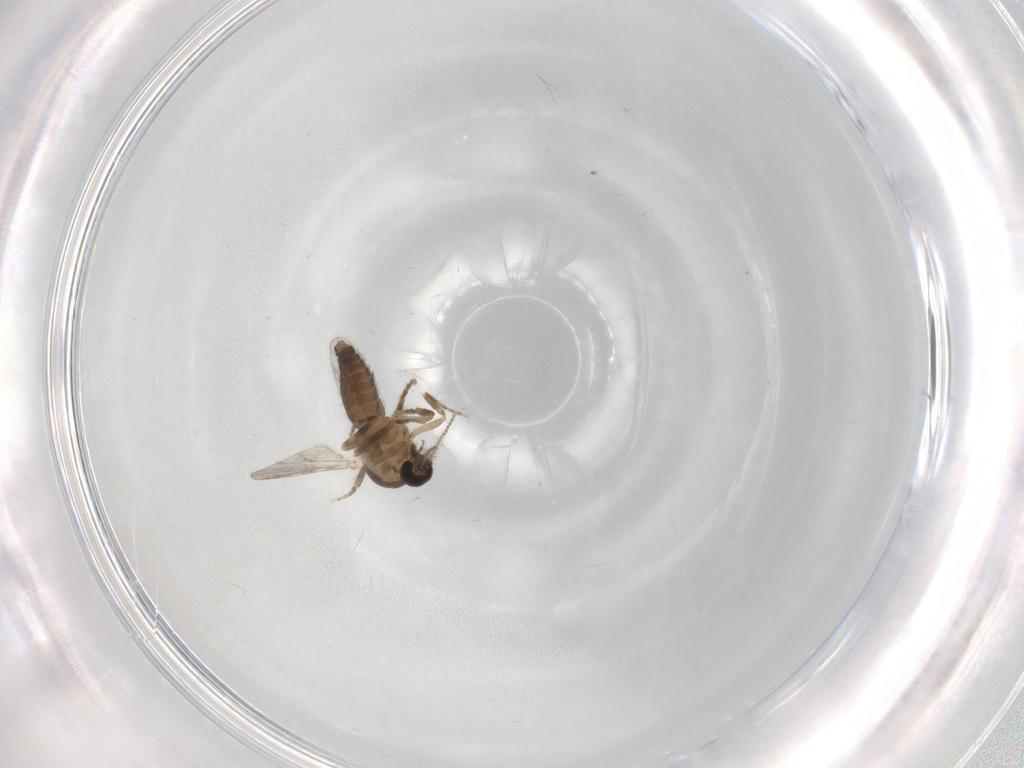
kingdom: Animalia
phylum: Arthropoda
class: Insecta
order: Diptera
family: Ceratopogonidae
